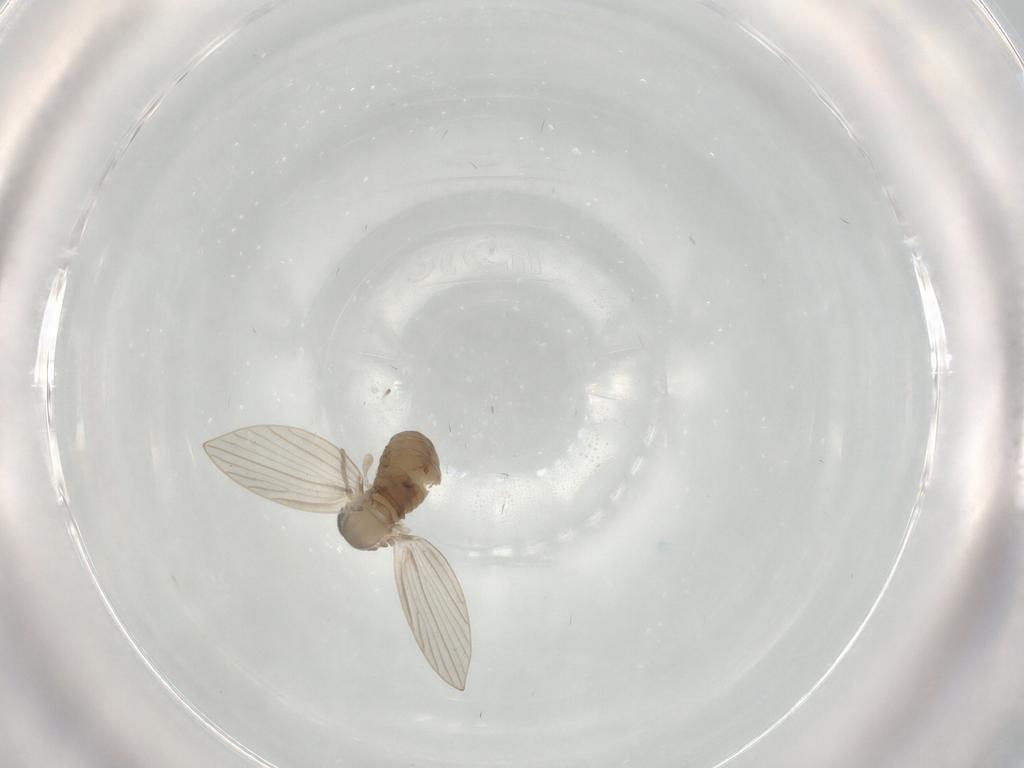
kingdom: Animalia
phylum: Arthropoda
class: Insecta
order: Diptera
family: Psychodidae
